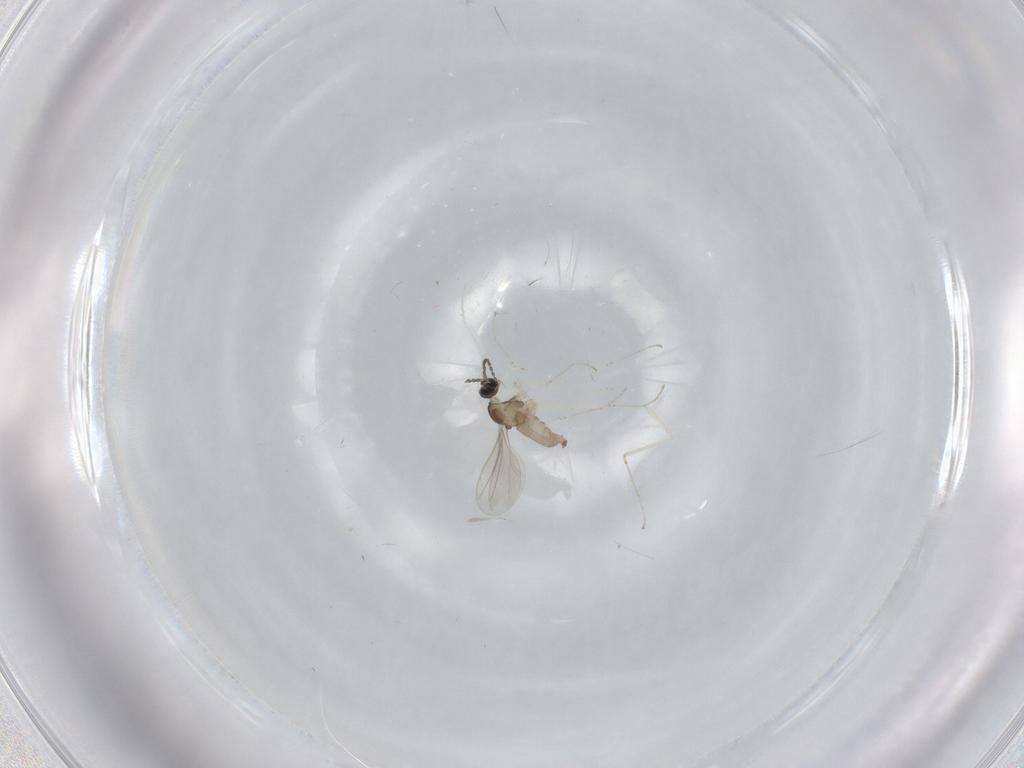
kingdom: Animalia
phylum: Arthropoda
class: Insecta
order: Diptera
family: Cecidomyiidae
